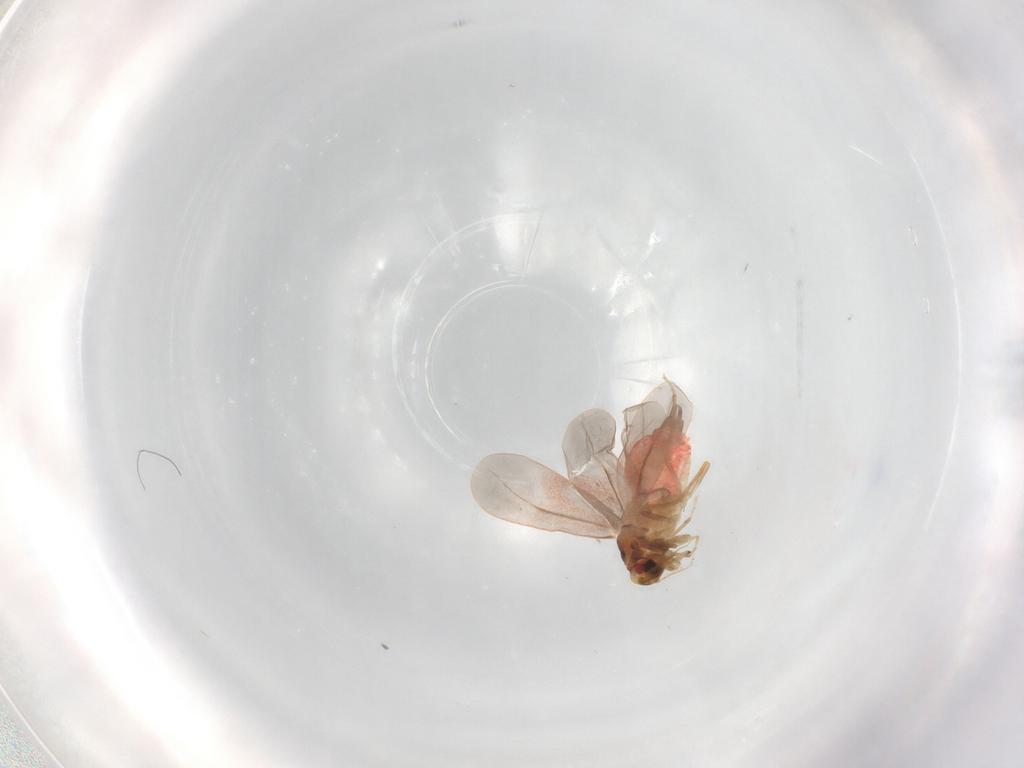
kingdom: Animalia
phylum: Arthropoda
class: Insecta
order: Hemiptera
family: Aleyrodidae
